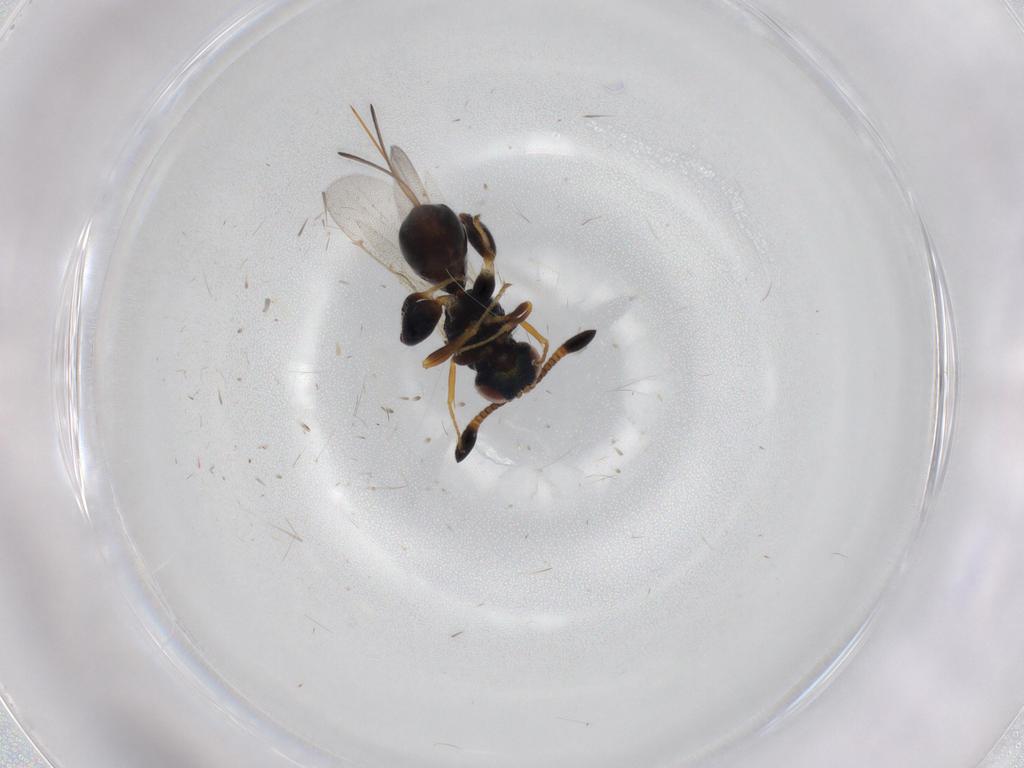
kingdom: Animalia
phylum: Arthropoda
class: Insecta
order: Hymenoptera
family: Torymidae
